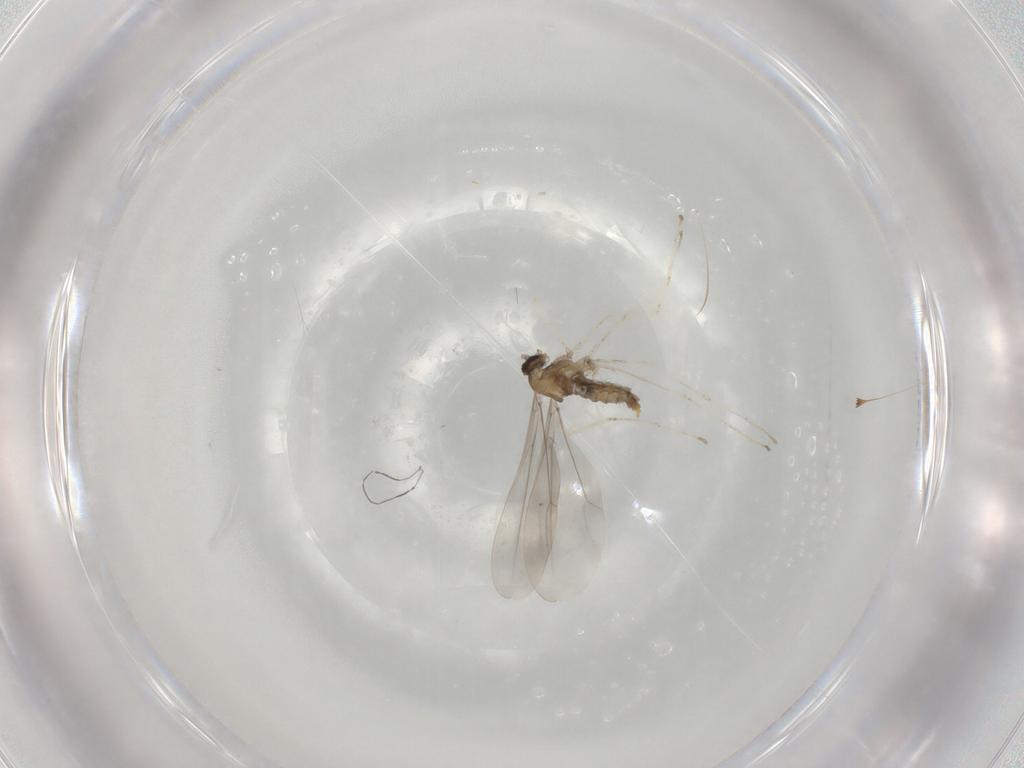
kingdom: Animalia
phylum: Arthropoda
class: Insecta
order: Diptera
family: Cecidomyiidae
